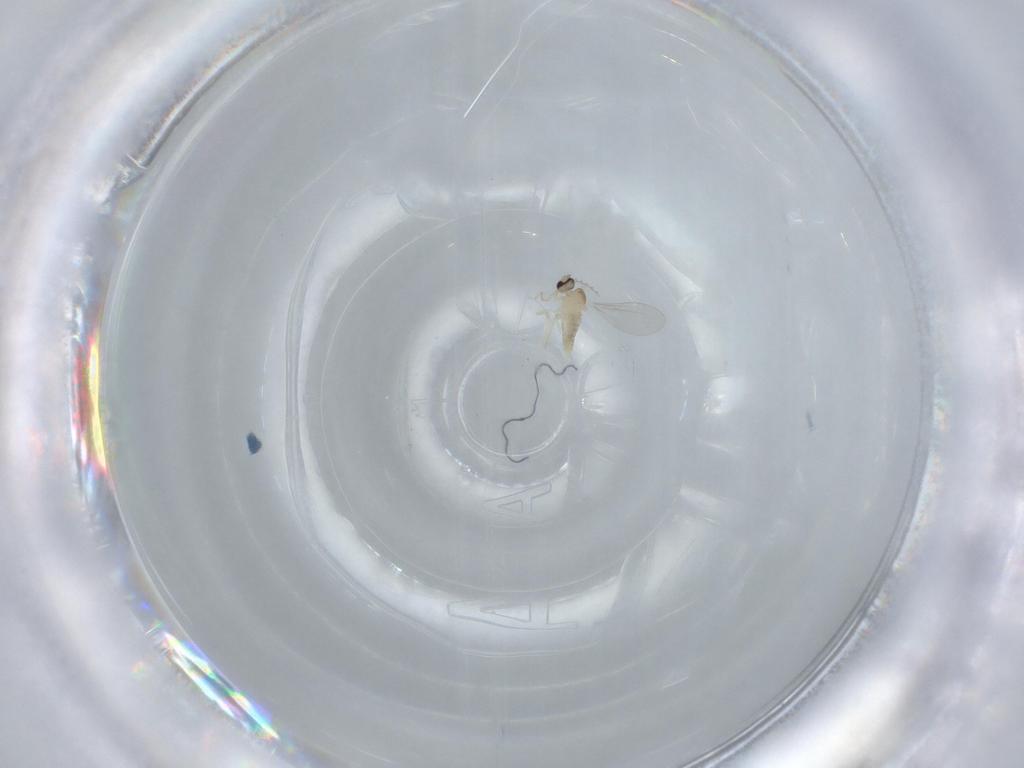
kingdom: Animalia
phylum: Arthropoda
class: Insecta
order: Diptera
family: Cecidomyiidae
